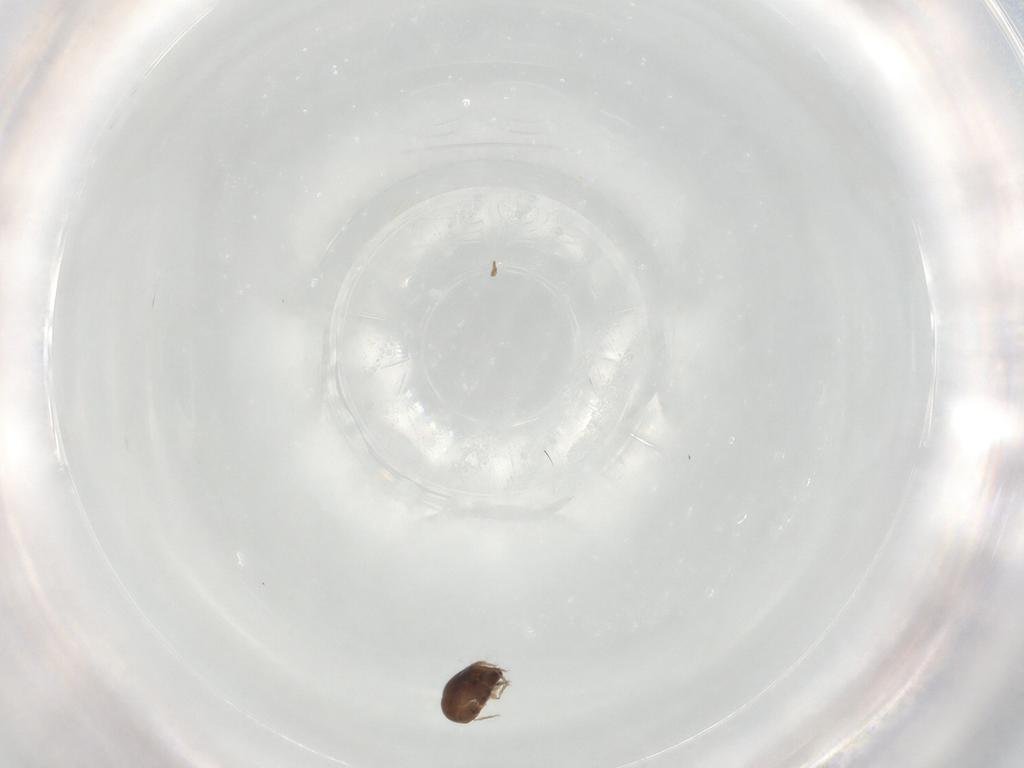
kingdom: Animalia
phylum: Arthropoda
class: Arachnida
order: Sarcoptiformes
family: Galumnidae
